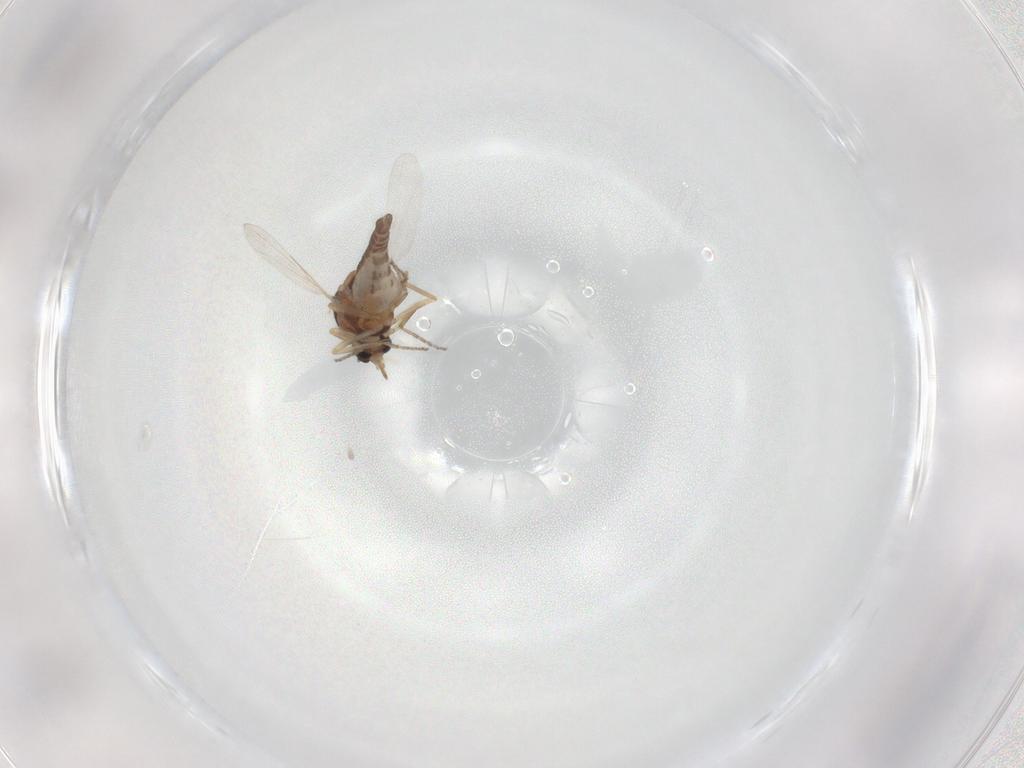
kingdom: Animalia
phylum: Arthropoda
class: Insecta
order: Diptera
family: Ceratopogonidae
